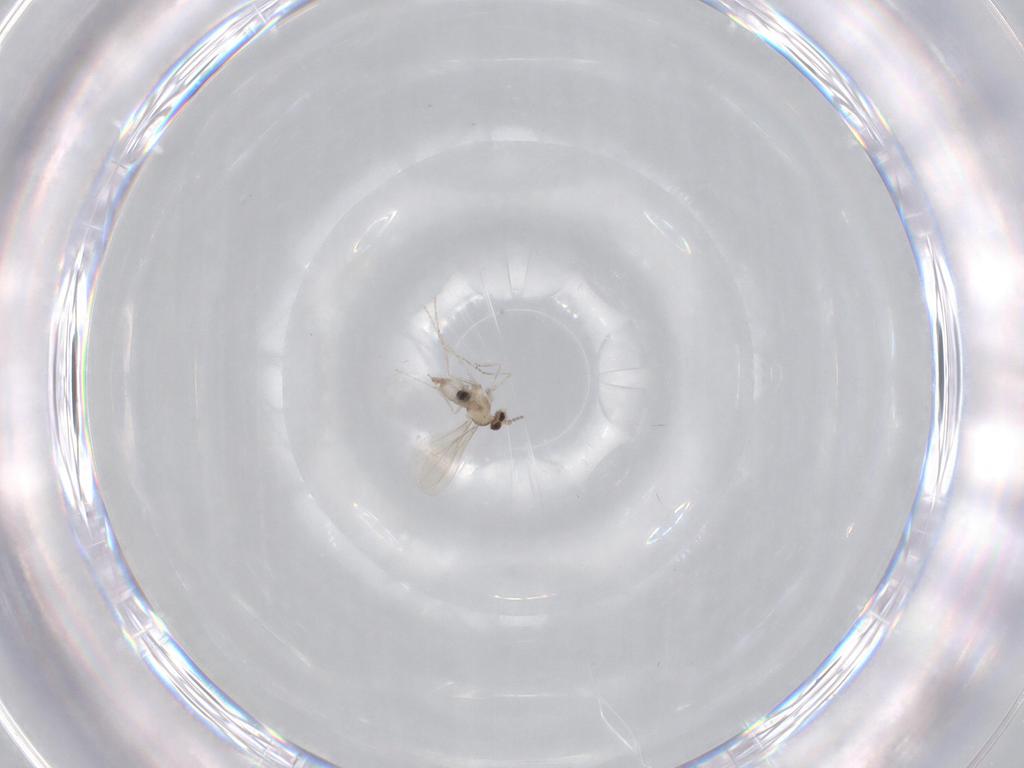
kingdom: Animalia
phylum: Arthropoda
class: Insecta
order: Diptera
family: Cecidomyiidae
